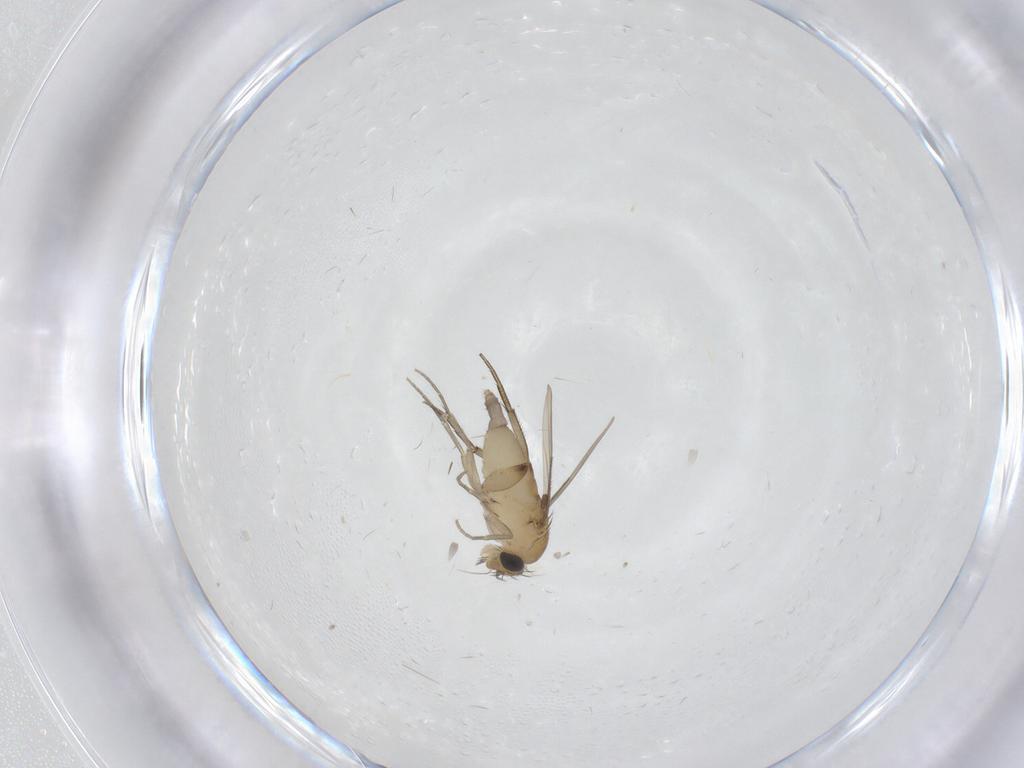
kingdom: Animalia
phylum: Arthropoda
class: Insecta
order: Diptera
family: Phoridae
